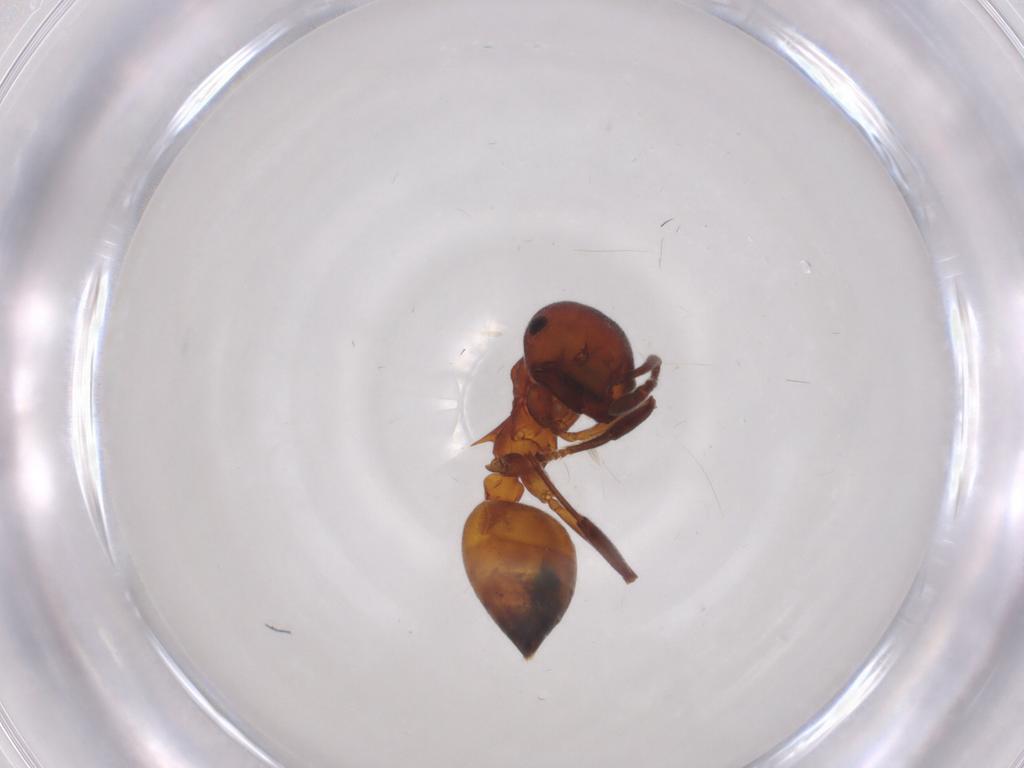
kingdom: Animalia
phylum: Arthropoda
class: Insecta
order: Hymenoptera
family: Formicidae
